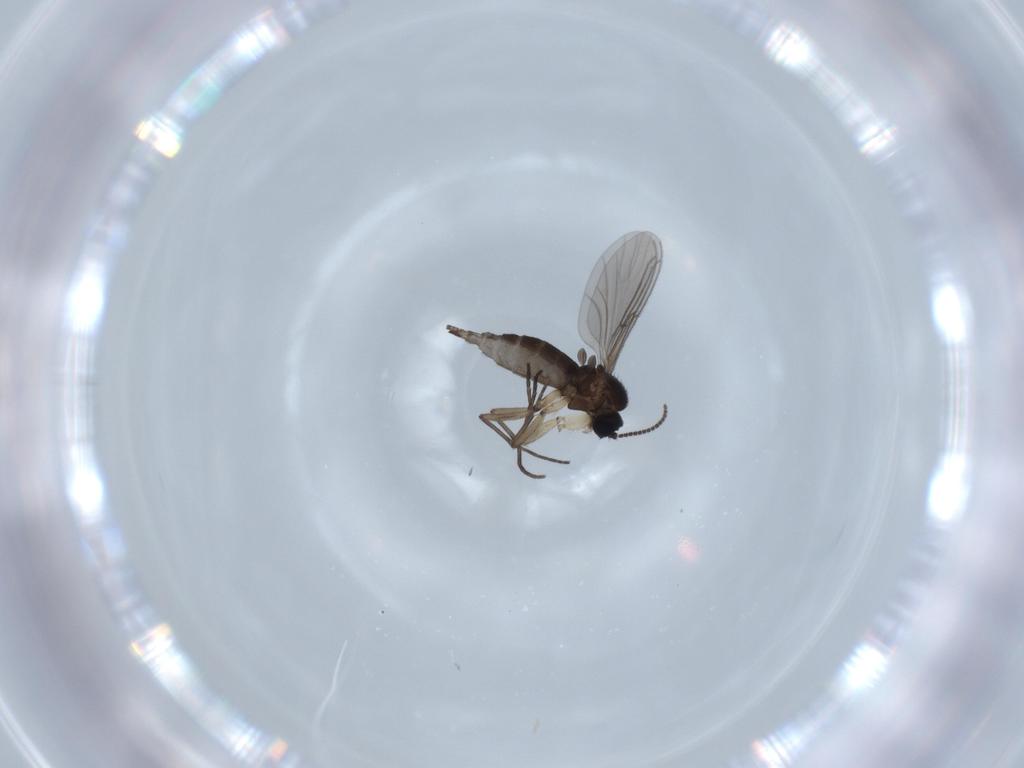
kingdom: Animalia
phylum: Arthropoda
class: Insecta
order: Diptera
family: Sciaridae
